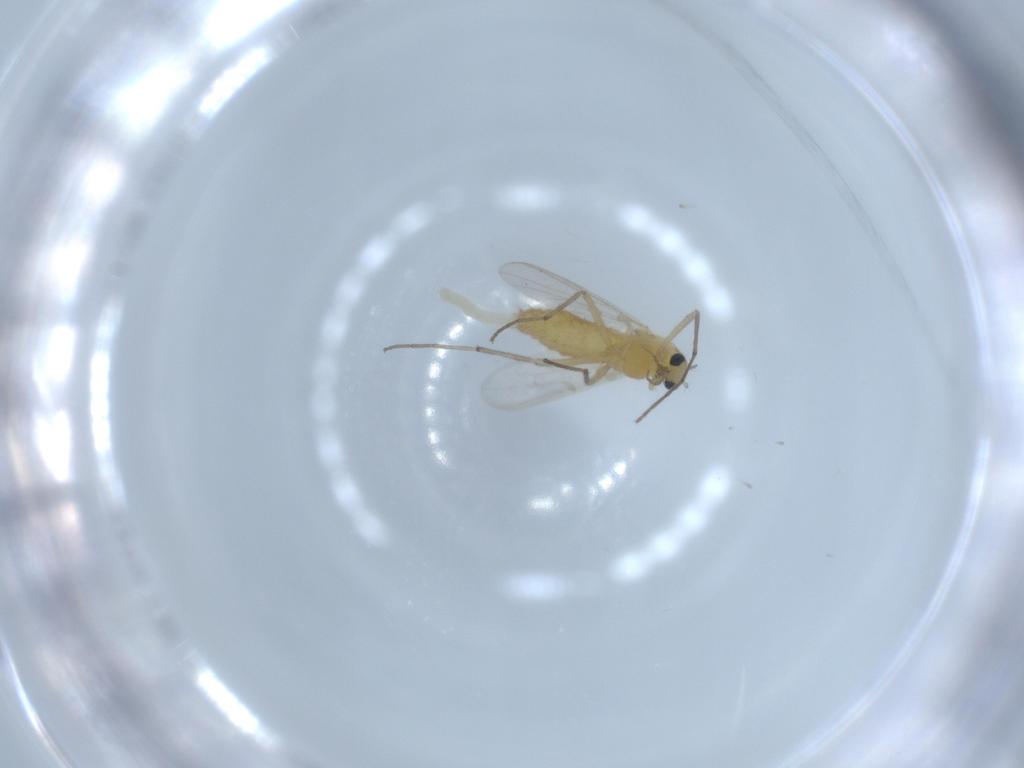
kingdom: Animalia
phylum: Arthropoda
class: Insecta
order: Diptera
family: Chironomidae
